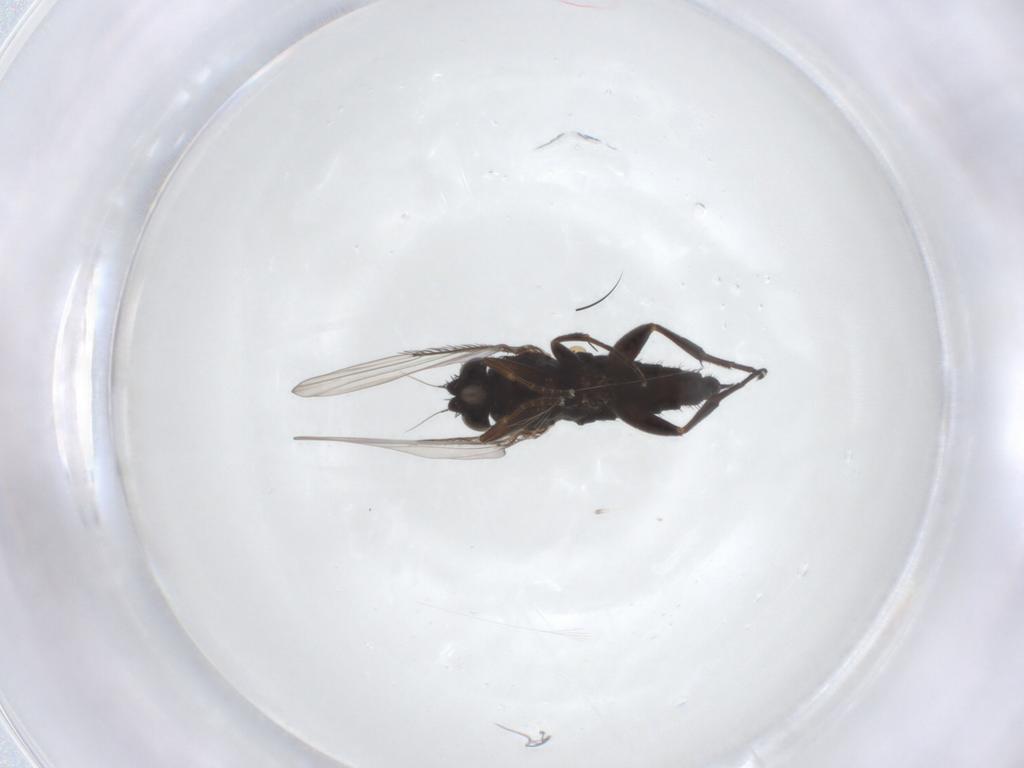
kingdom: Animalia
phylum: Arthropoda
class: Insecta
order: Diptera
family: Phoridae
